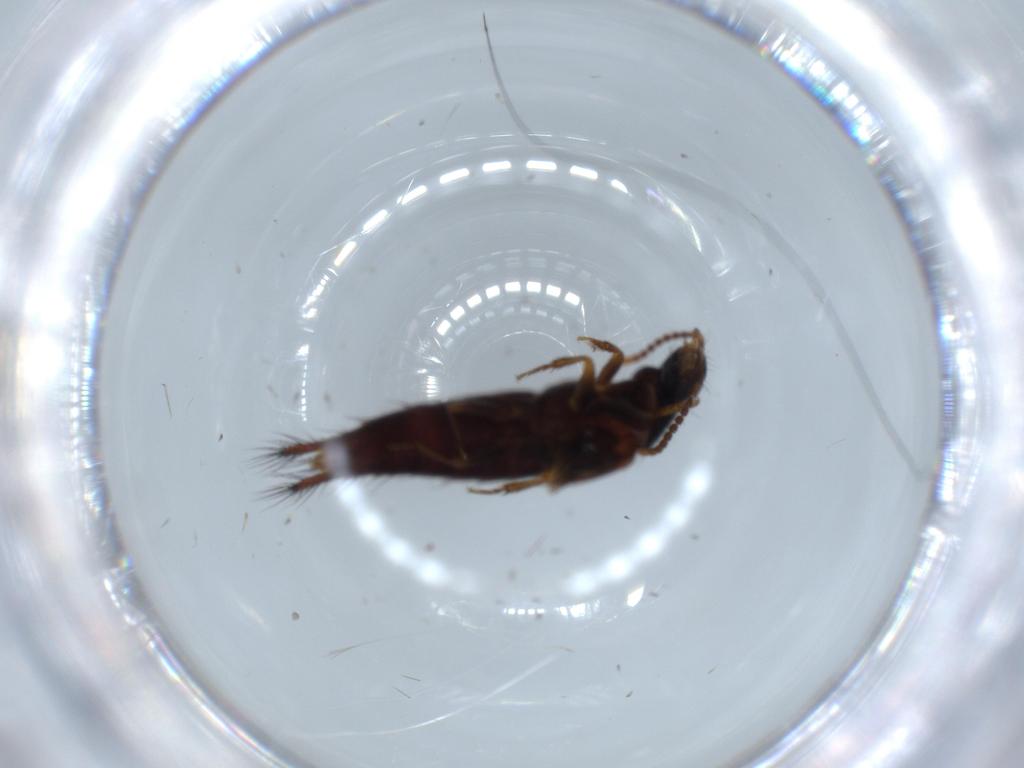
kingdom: Animalia
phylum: Arthropoda
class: Insecta
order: Coleoptera
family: Staphylinidae
